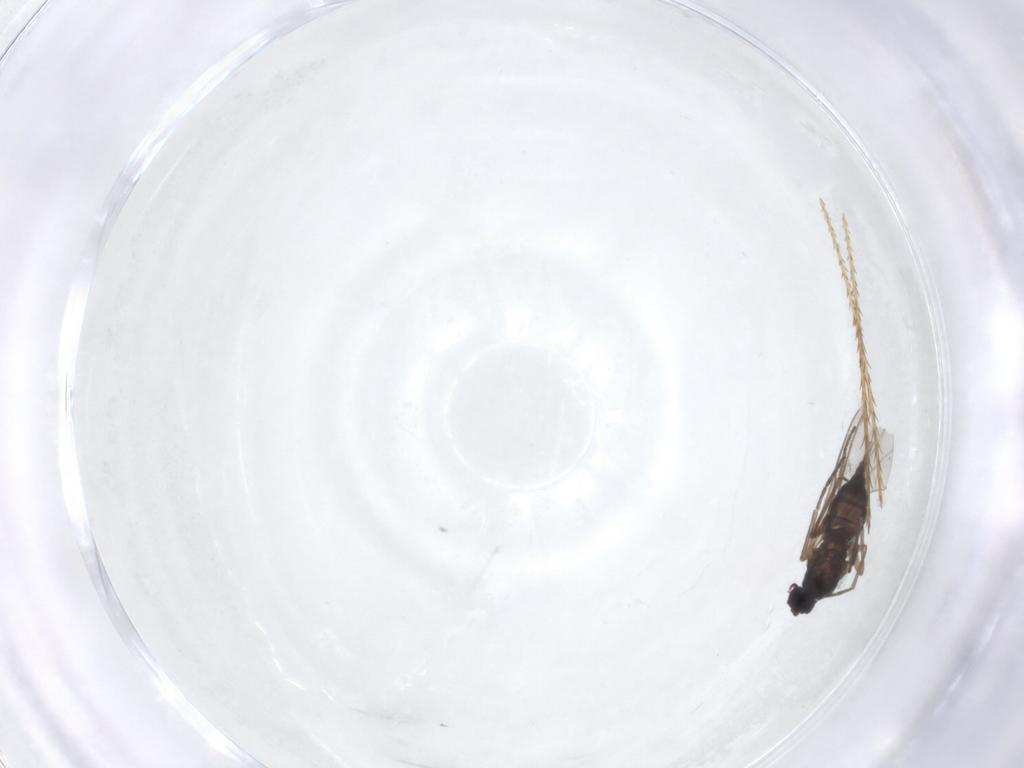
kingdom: Animalia
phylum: Arthropoda
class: Insecta
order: Diptera
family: Sciaridae
